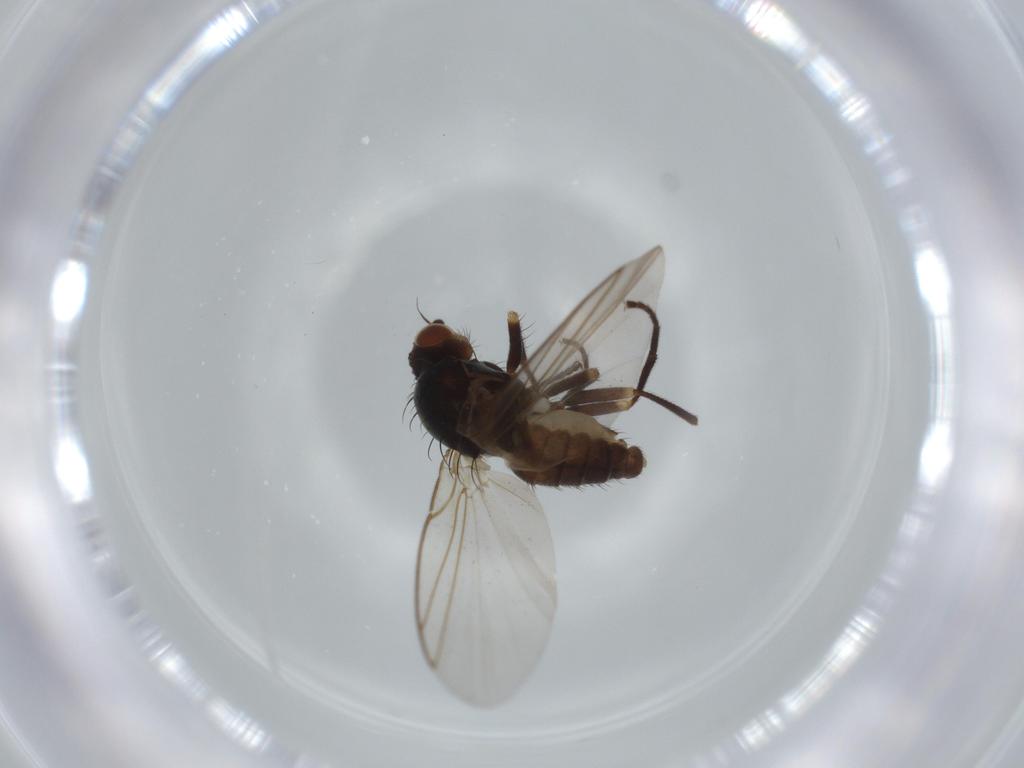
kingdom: Animalia
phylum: Arthropoda
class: Insecta
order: Diptera
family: Agromyzidae
